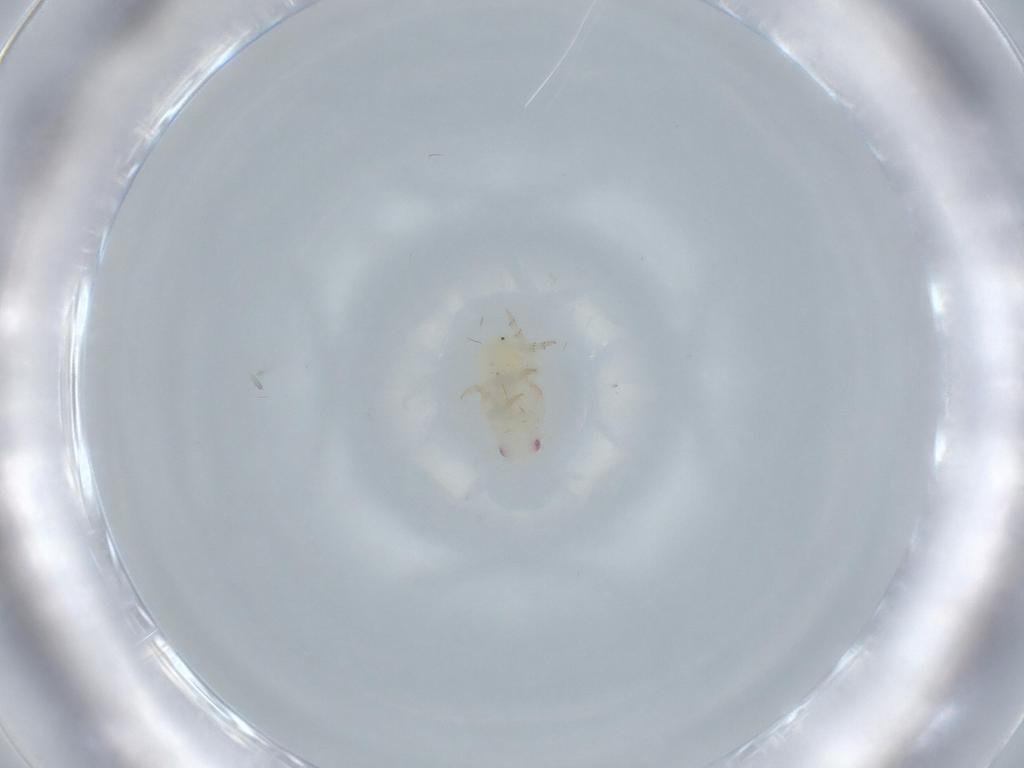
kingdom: Animalia
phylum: Arthropoda
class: Insecta
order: Hemiptera
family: Flatidae
